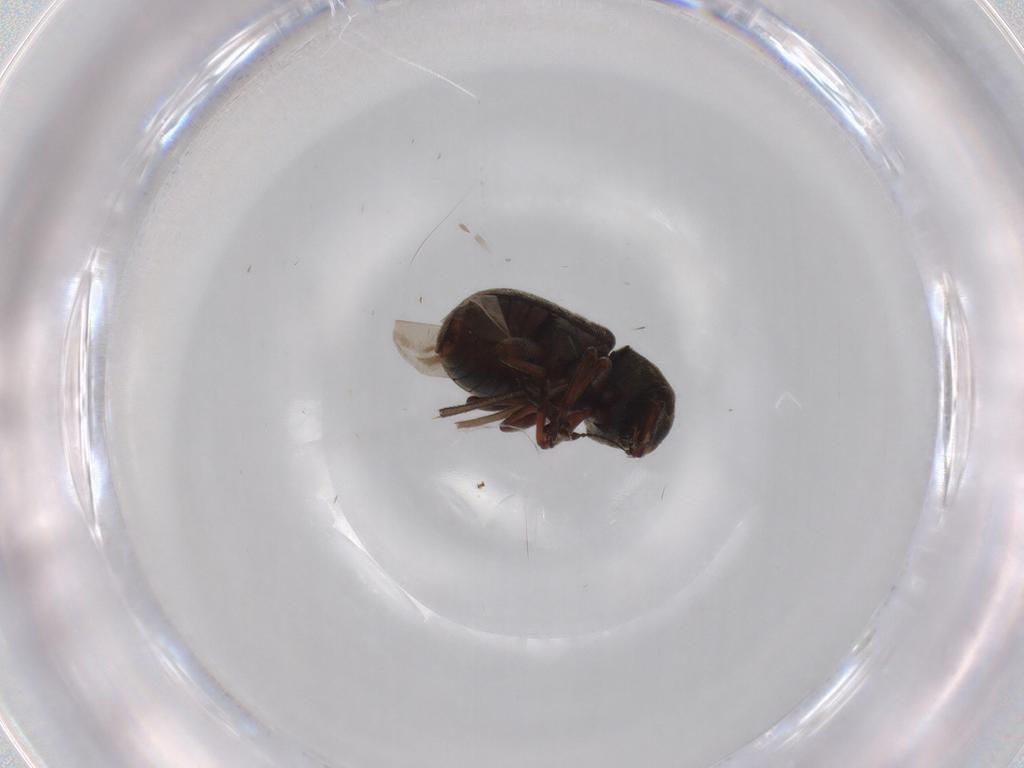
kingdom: Animalia
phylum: Arthropoda
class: Insecta
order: Coleoptera
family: Anthribidae
